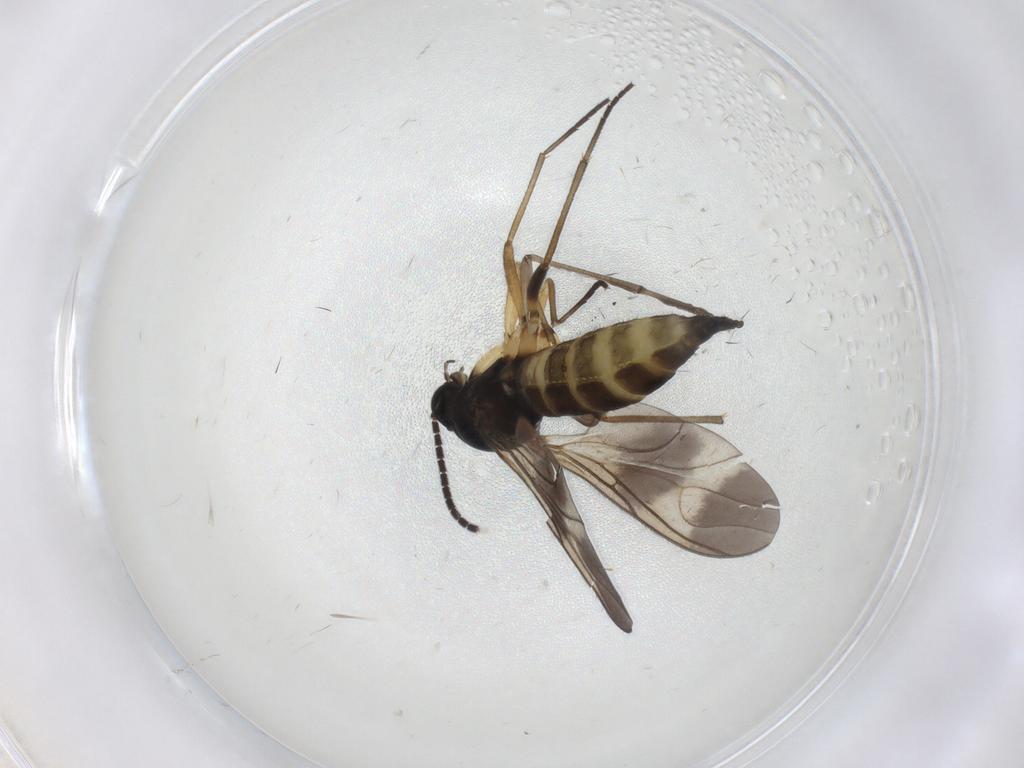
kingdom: Animalia
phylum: Arthropoda
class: Insecta
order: Diptera
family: Sciaridae
